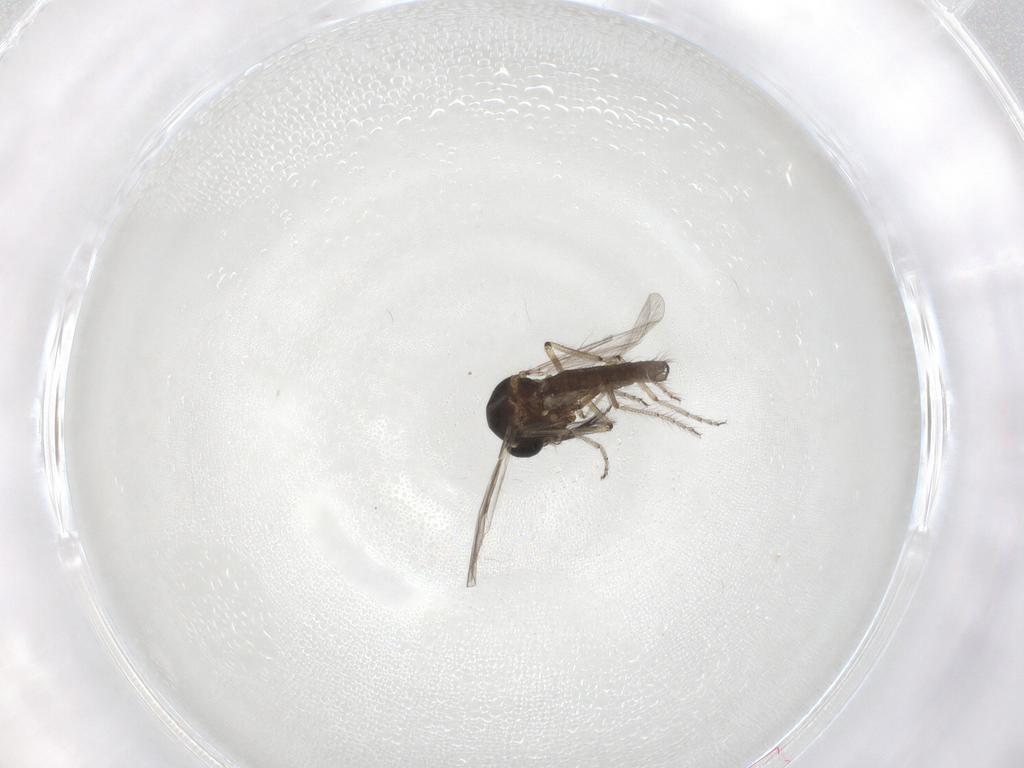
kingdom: Animalia
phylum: Arthropoda
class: Insecta
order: Diptera
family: Ceratopogonidae
